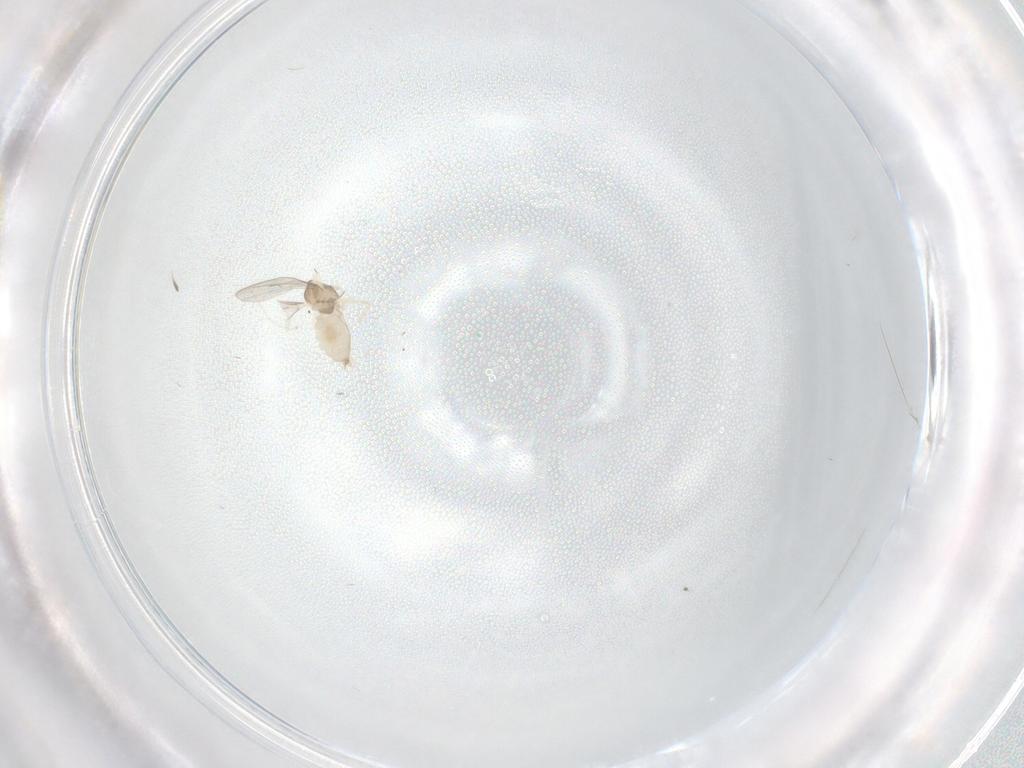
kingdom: Animalia
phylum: Arthropoda
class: Insecta
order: Diptera
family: Limoniidae
